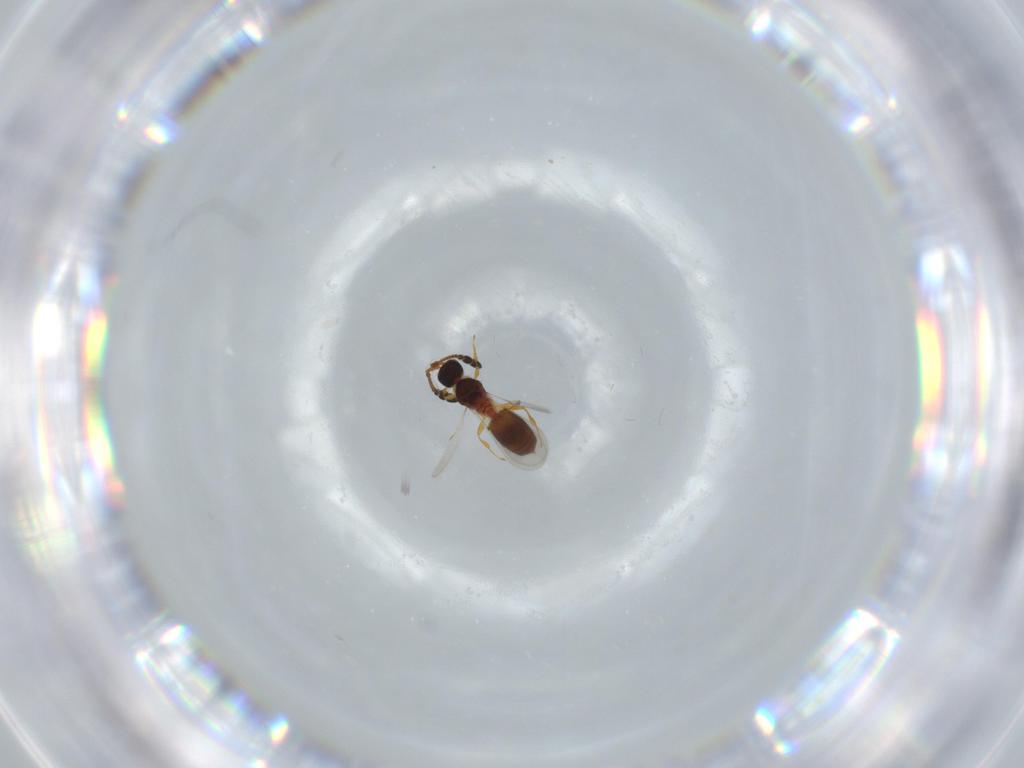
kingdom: Animalia
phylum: Arthropoda
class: Insecta
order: Hymenoptera
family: Diapriidae
